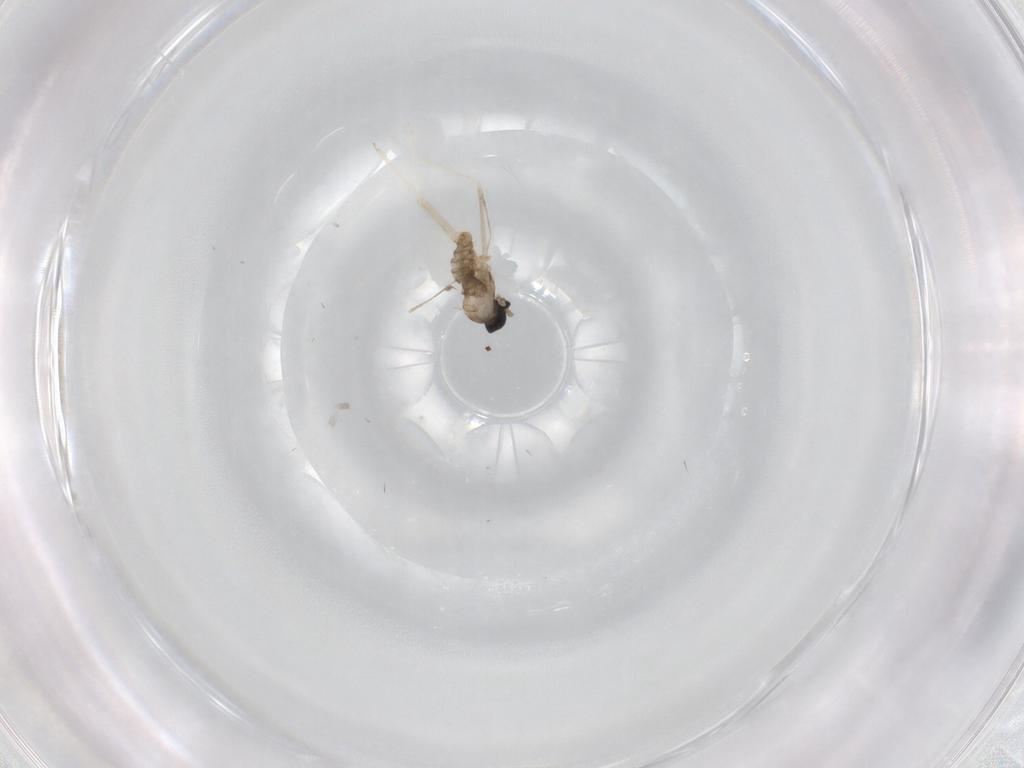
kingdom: Animalia
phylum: Arthropoda
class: Insecta
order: Diptera
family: Cecidomyiidae
